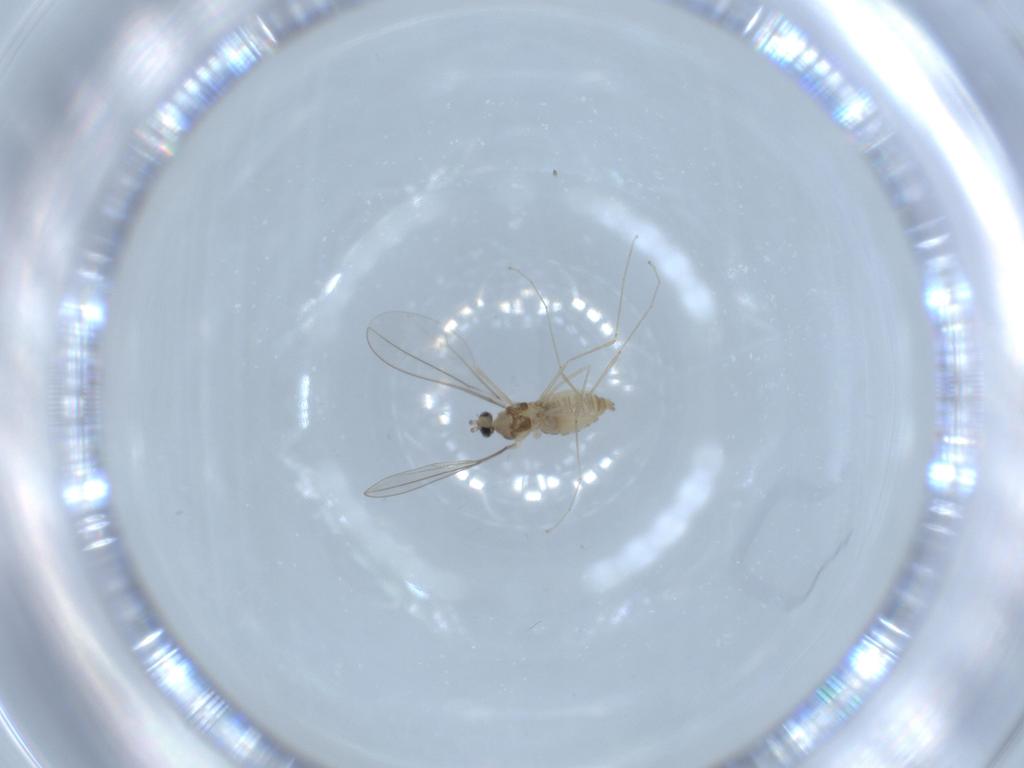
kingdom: Animalia
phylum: Arthropoda
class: Insecta
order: Diptera
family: Cecidomyiidae
